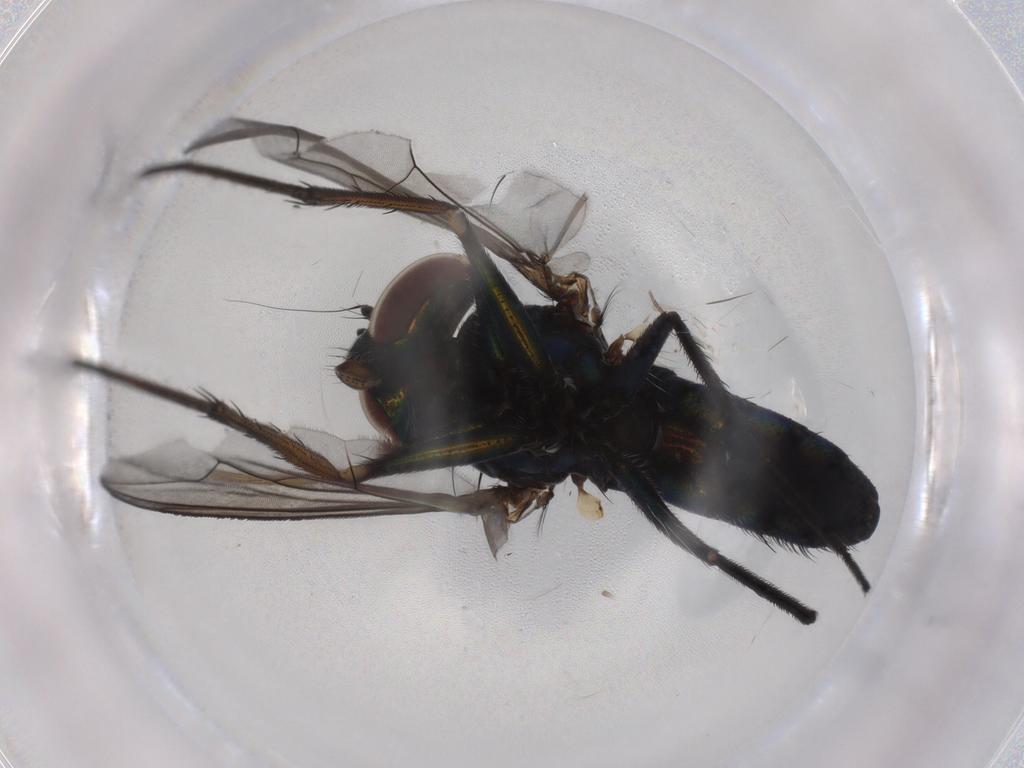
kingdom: Animalia
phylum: Arthropoda
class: Insecta
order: Diptera
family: Dolichopodidae
